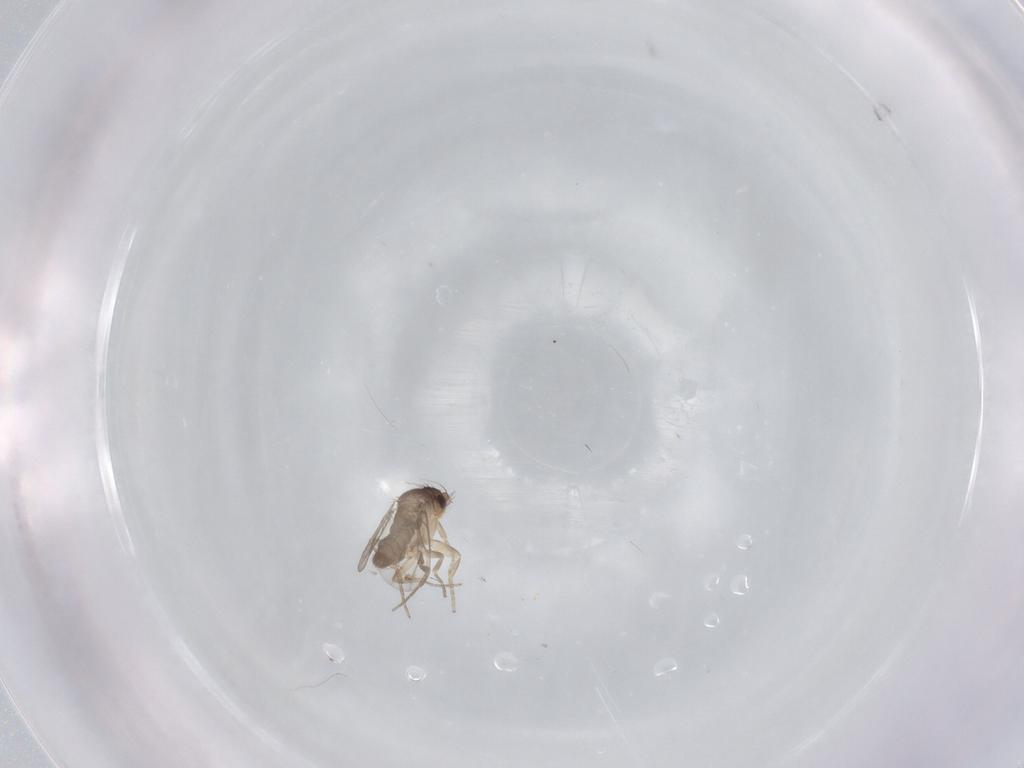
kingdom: Animalia
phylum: Arthropoda
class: Insecta
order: Diptera
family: Phoridae
